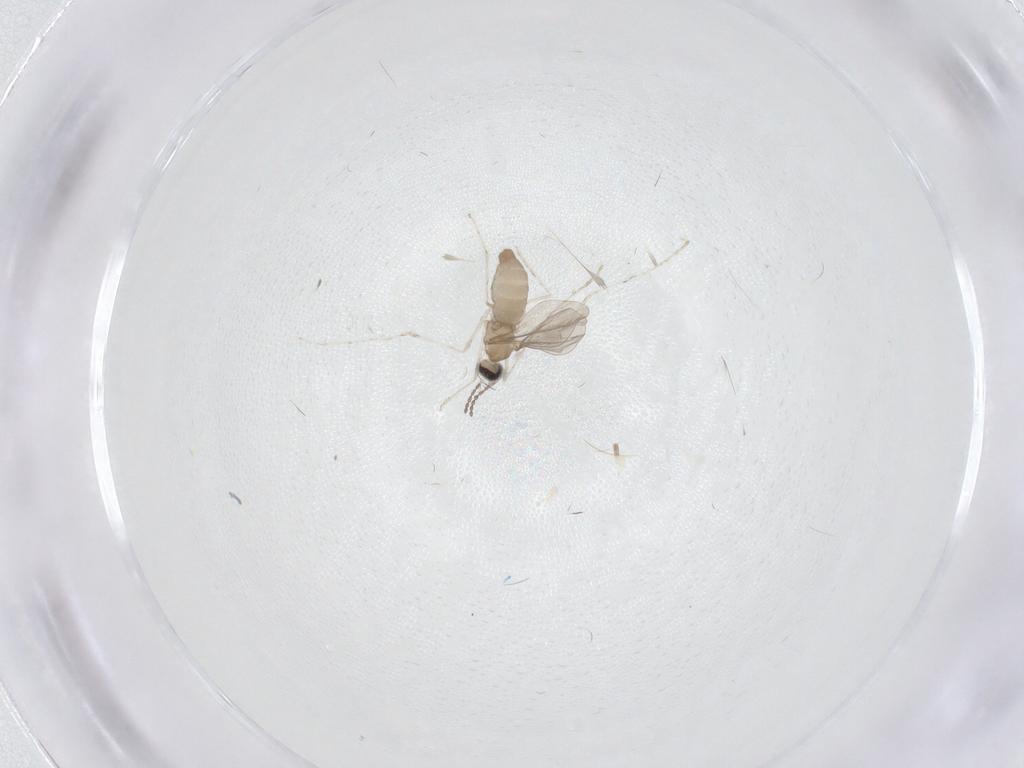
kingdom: Animalia
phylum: Arthropoda
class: Insecta
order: Diptera
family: Cecidomyiidae
